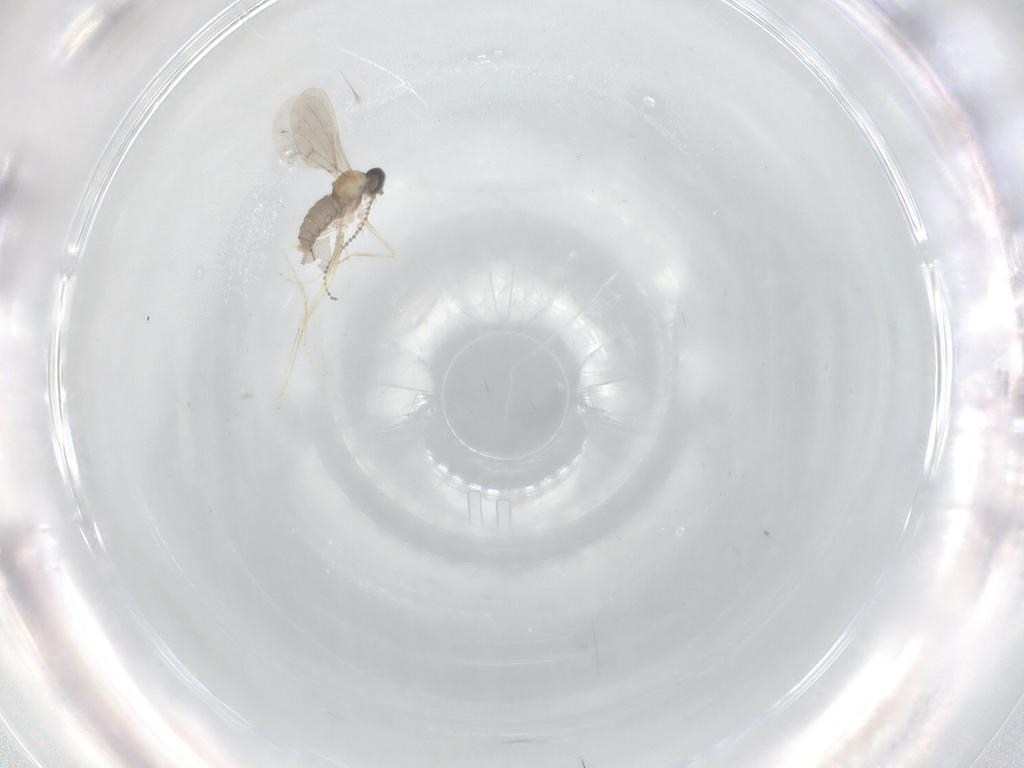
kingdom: Animalia
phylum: Arthropoda
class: Insecta
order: Diptera
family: Cecidomyiidae
